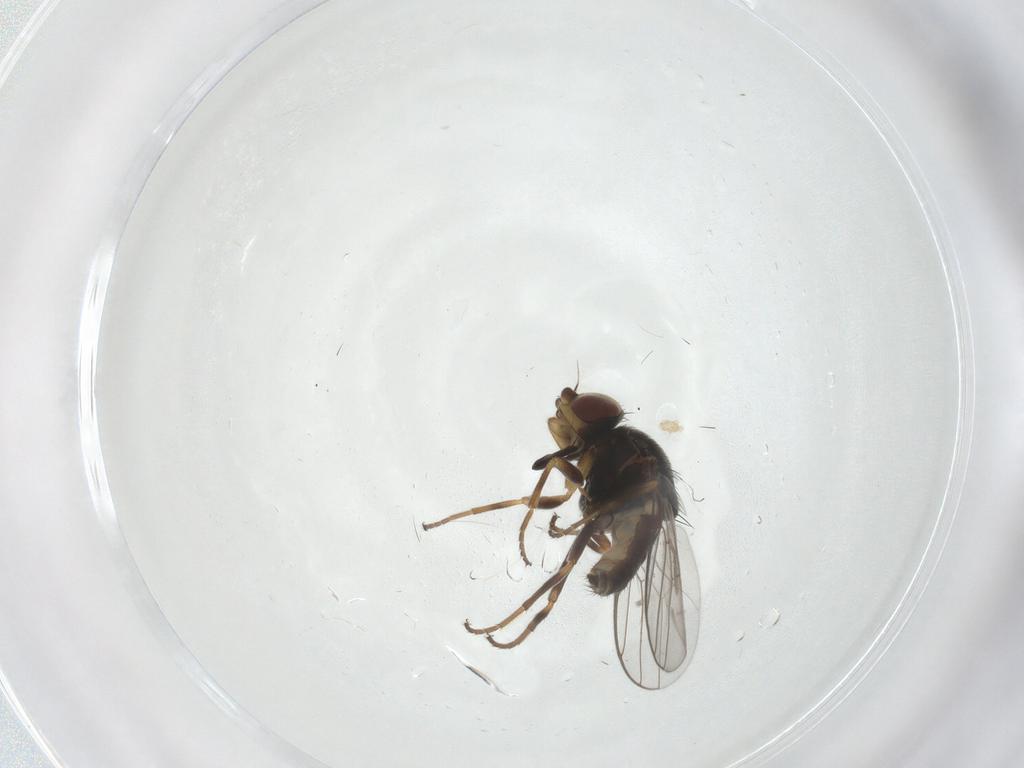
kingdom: Animalia
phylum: Arthropoda
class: Insecta
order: Diptera
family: Chloropidae
